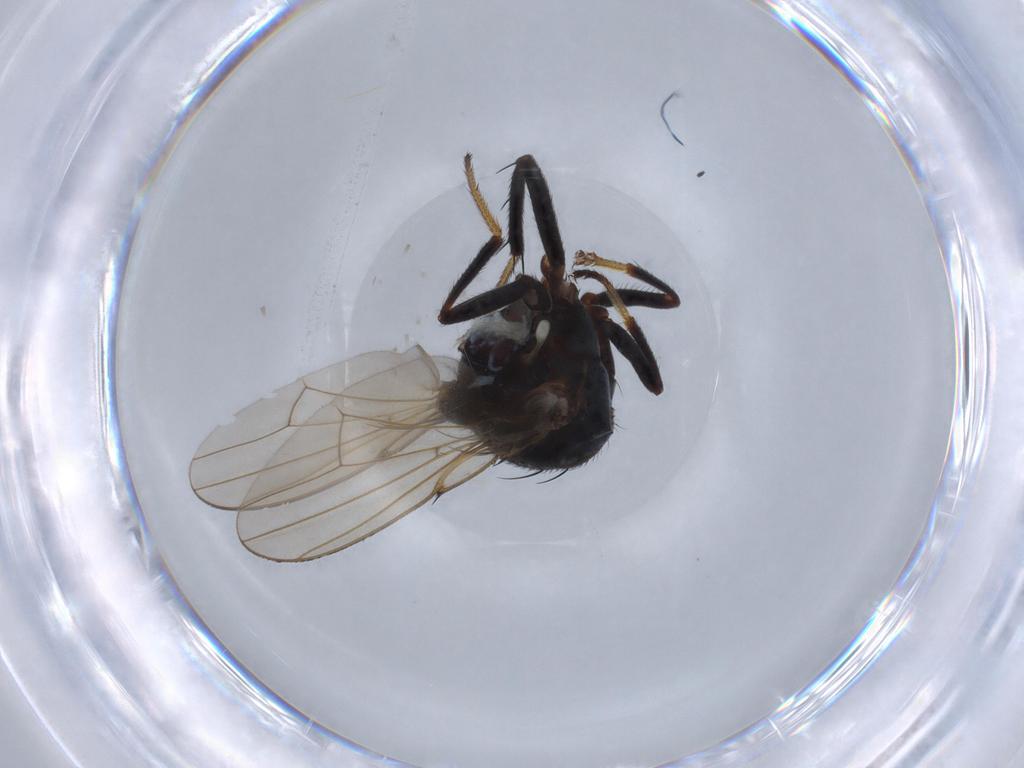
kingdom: Animalia
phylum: Arthropoda
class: Insecta
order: Diptera
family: Ephydridae
